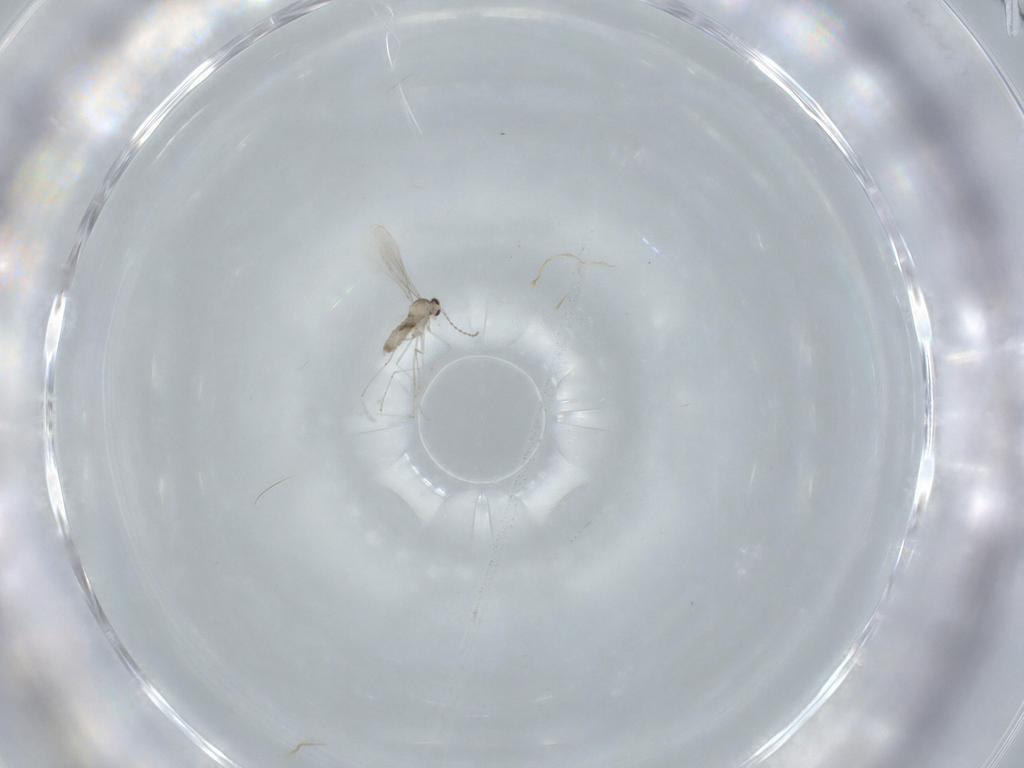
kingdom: Animalia
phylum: Arthropoda
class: Insecta
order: Diptera
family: Cecidomyiidae
